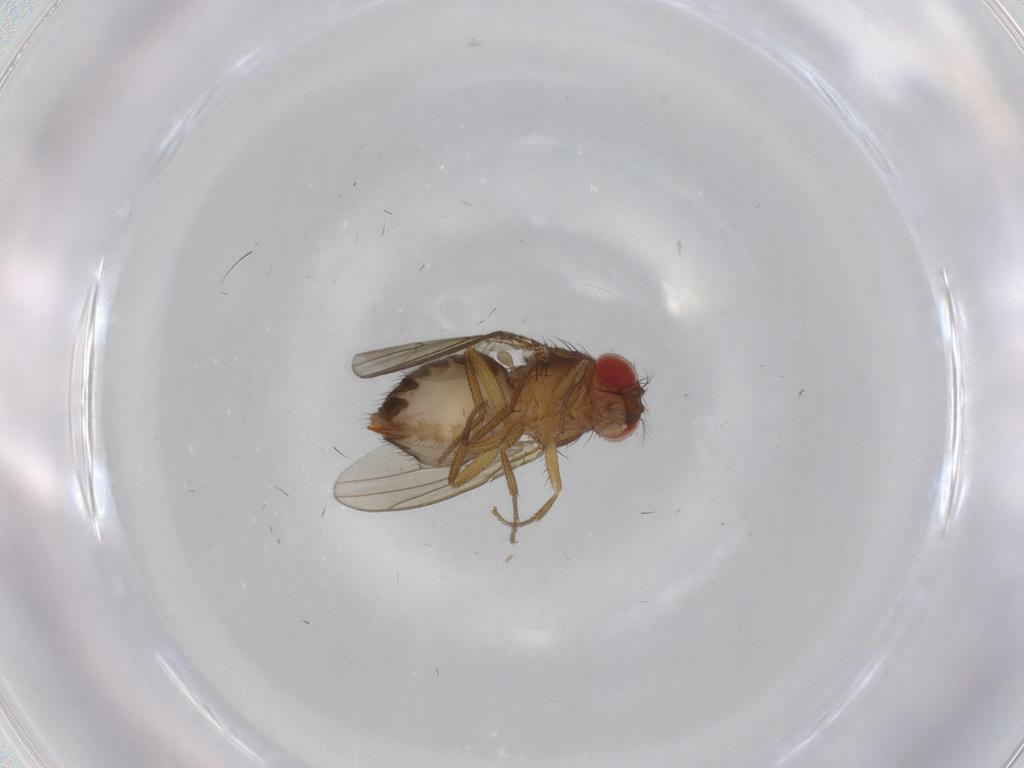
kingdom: Animalia
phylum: Arthropoda
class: Insecta
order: Diptera
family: Drosophilidae
